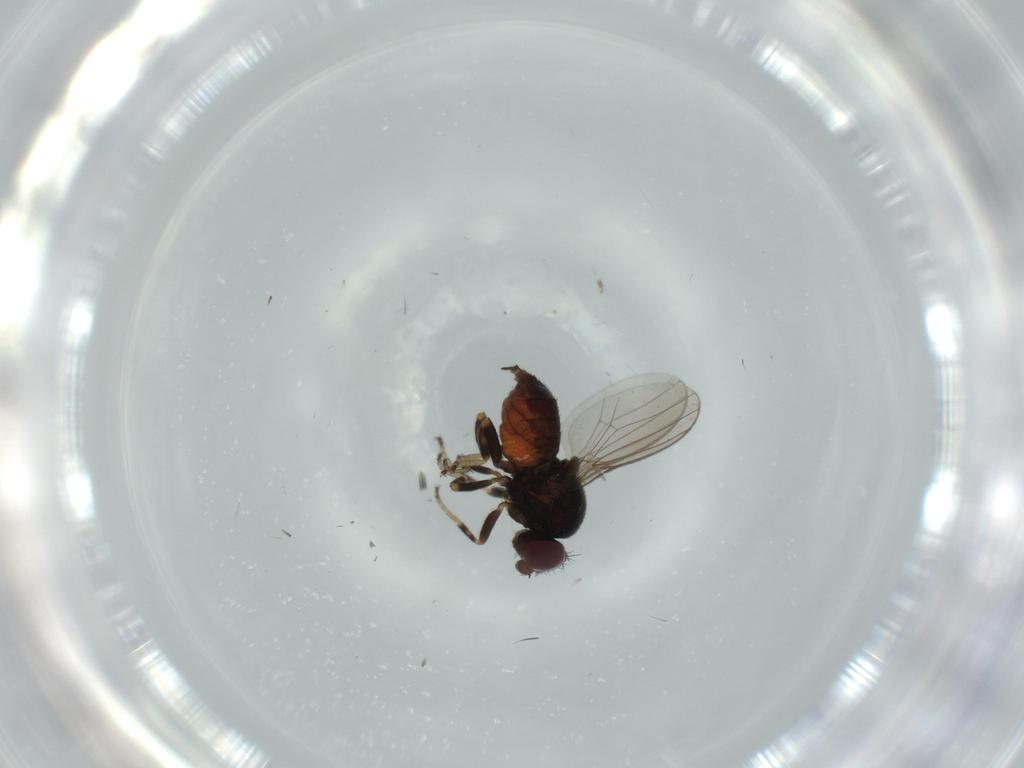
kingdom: Animalia
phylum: Arthropoda
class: Insecta
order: Diptera
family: Chloropidae
